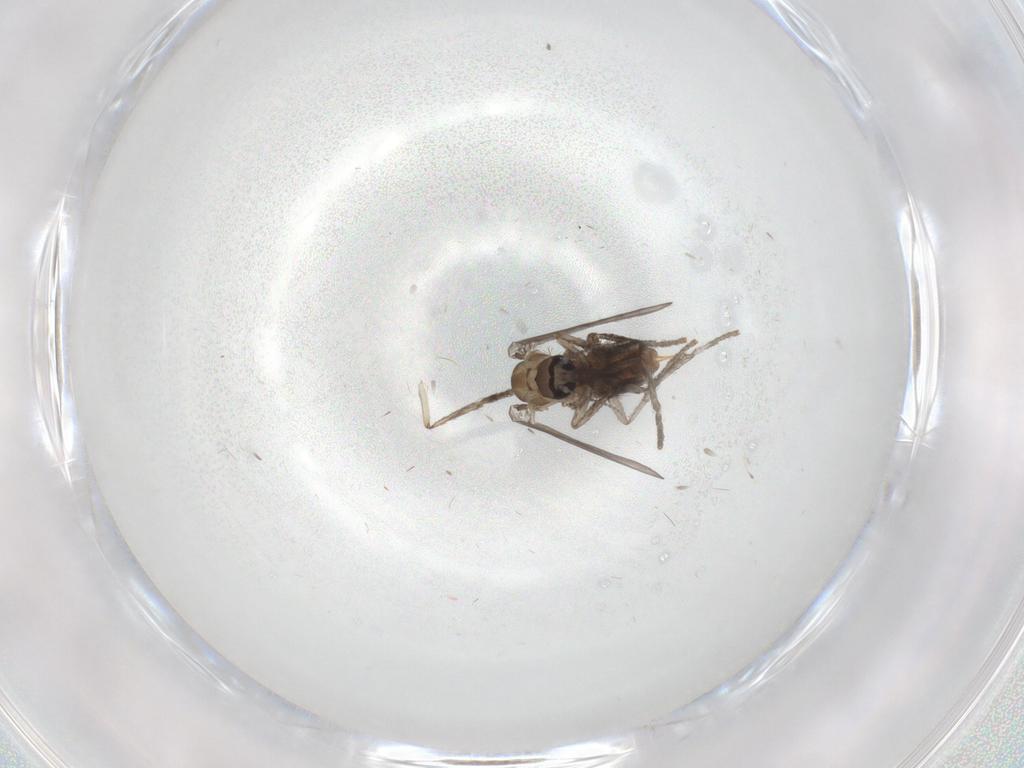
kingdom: Animalia
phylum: Arthropoda
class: Insecta
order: Diptera
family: Psychodidae
